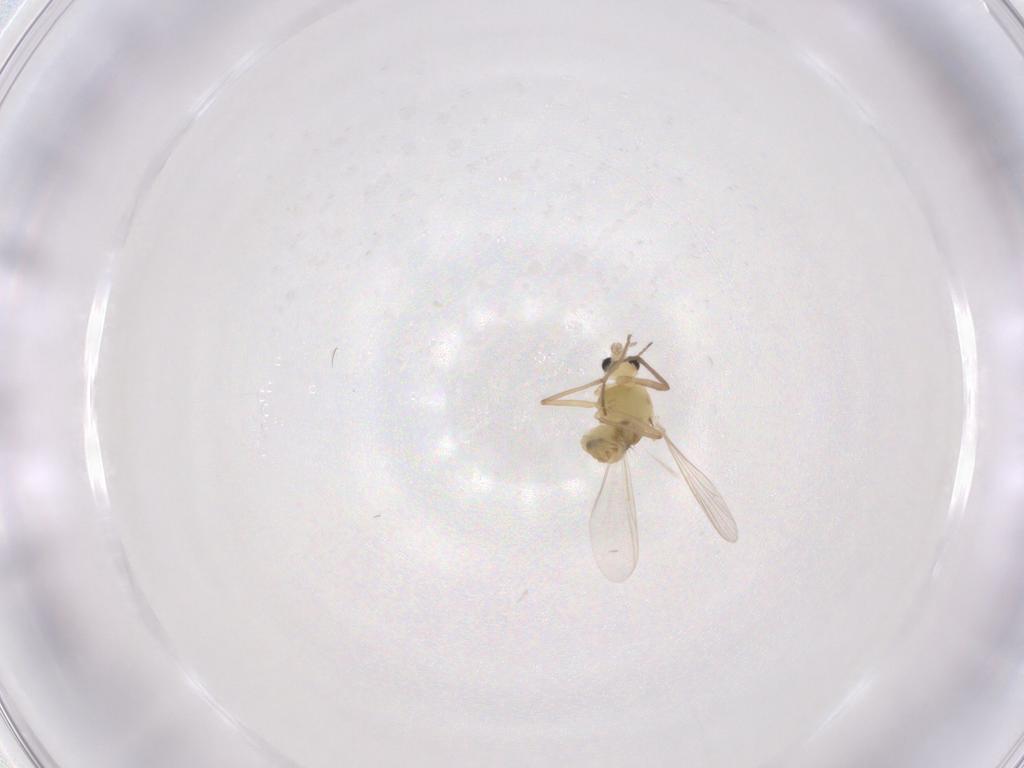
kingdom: Animalia
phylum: Arthropoda
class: Insecta
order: Diptera
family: Chironomidae
